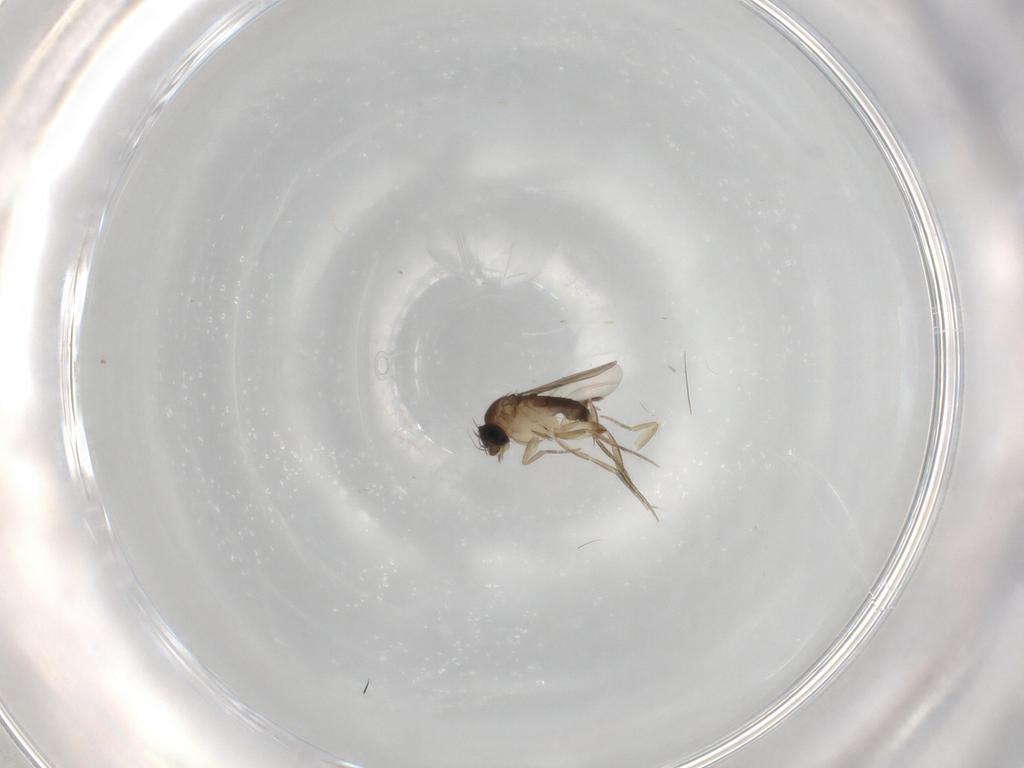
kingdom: Animalia
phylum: Arthropoda
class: Insecta
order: Diptera
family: Phoridae
